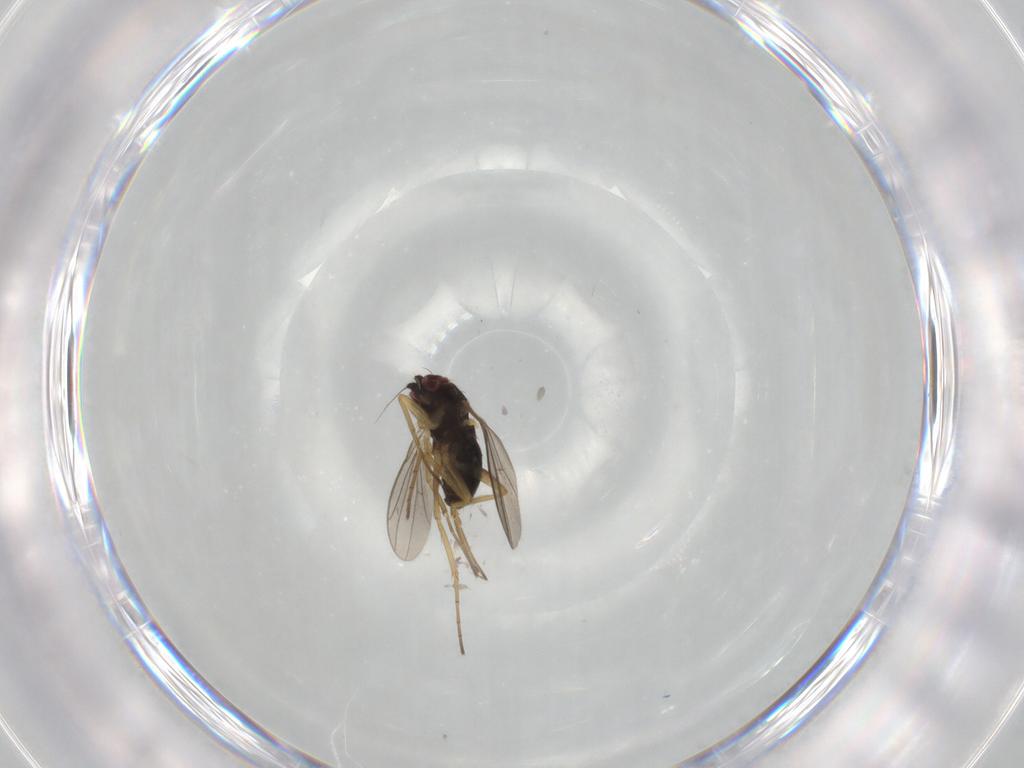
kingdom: Animalia
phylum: Arthropoda
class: Insecta
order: Diptera
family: Dolichopodidae
